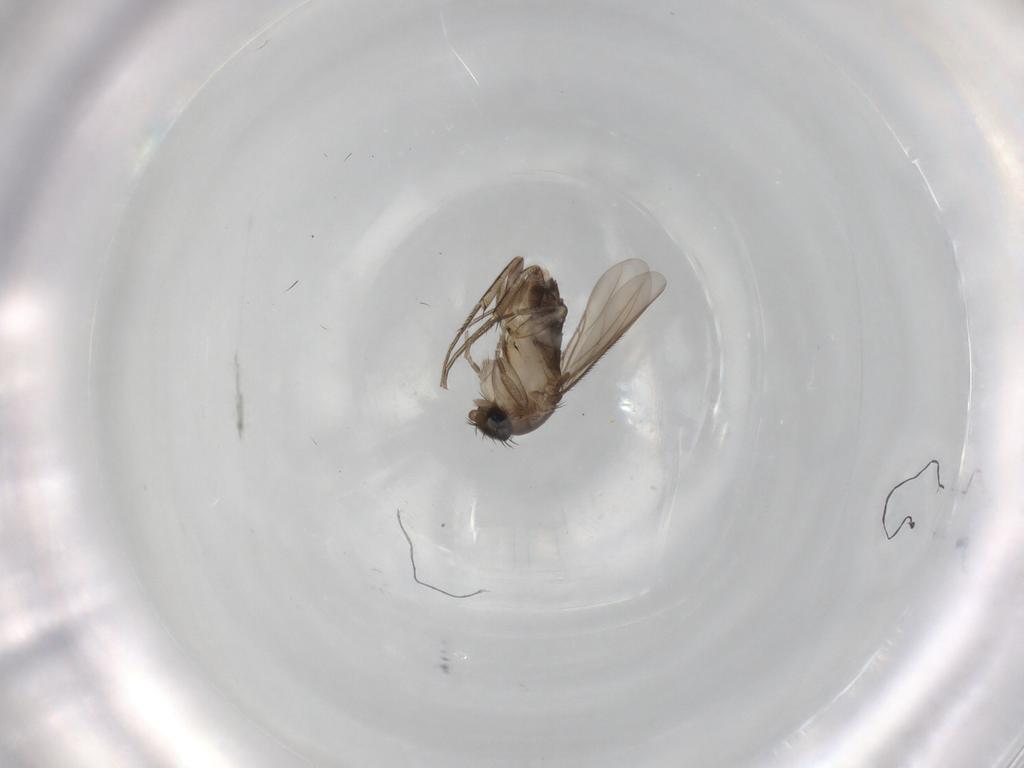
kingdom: Animalia
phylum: Arthropoda
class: Insecta
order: Diptera
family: Phoridae
